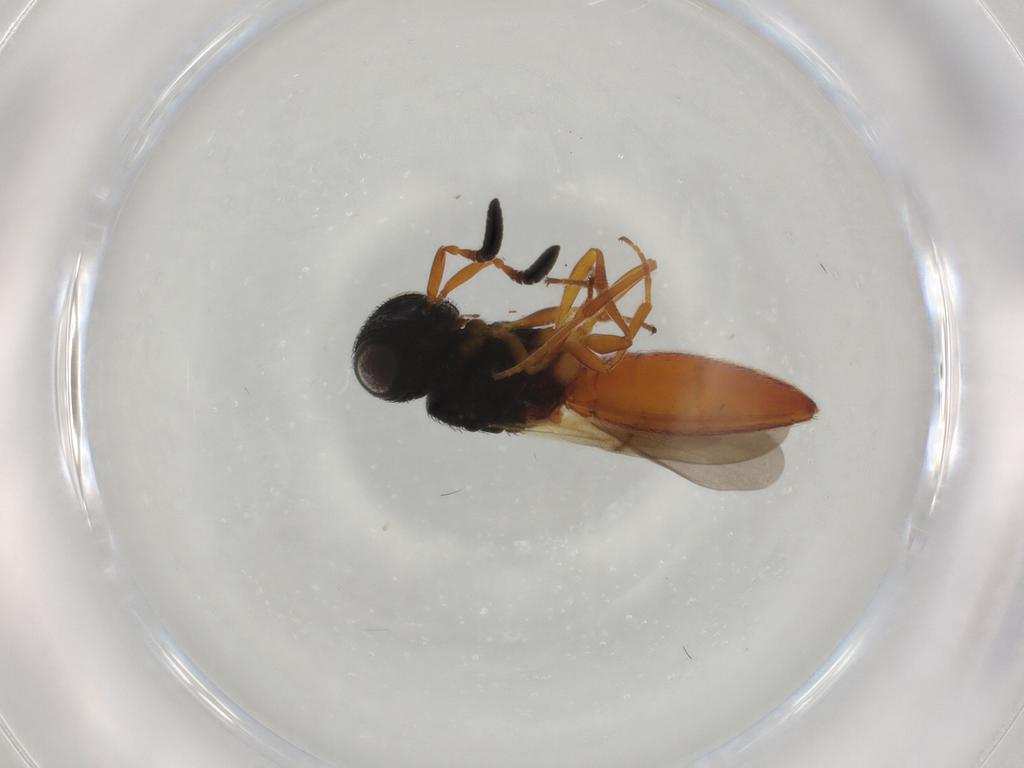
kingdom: Animalia
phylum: Arthropoda
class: Insecta
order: Hymenoptera
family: Scelionidae
